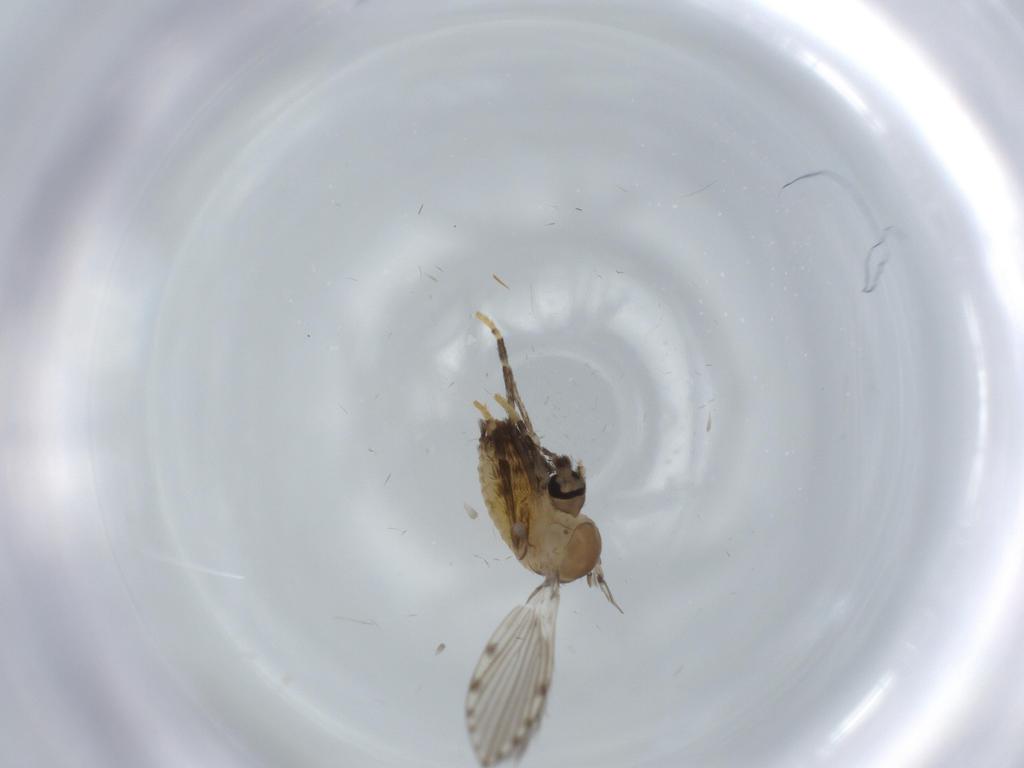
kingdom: Animalia
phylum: Arthropoda
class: Insecta
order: Diptera
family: Psychodidae
